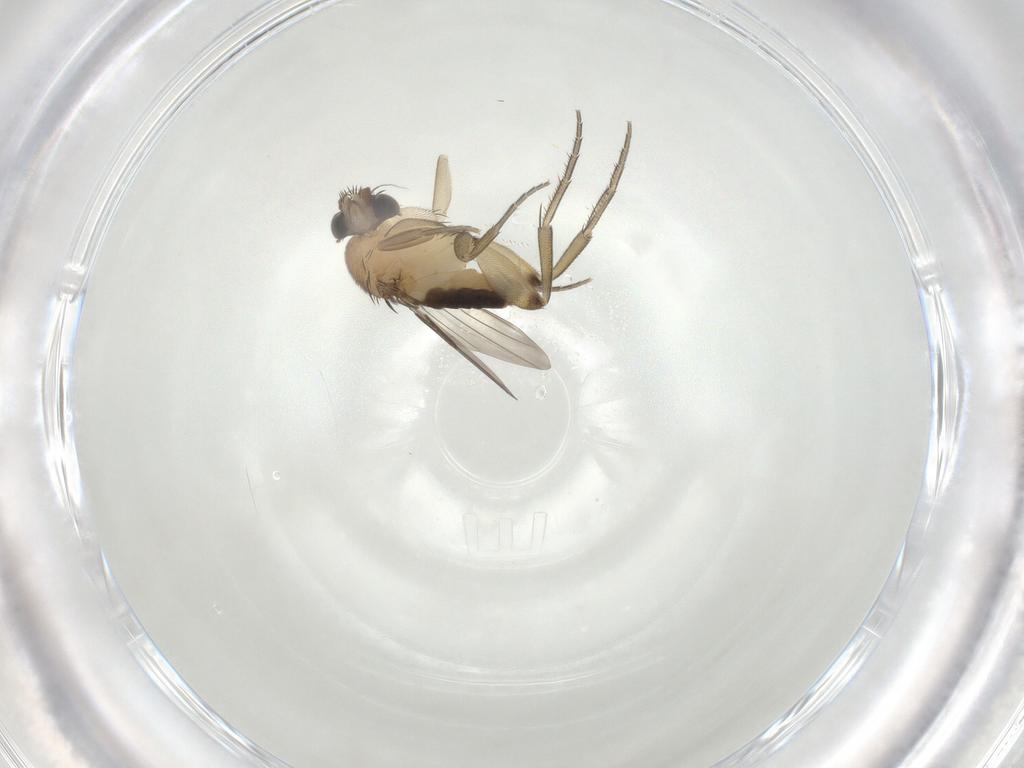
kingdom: Animalia
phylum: Arthropoda
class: Insecta
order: Diptera
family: Phoridae
